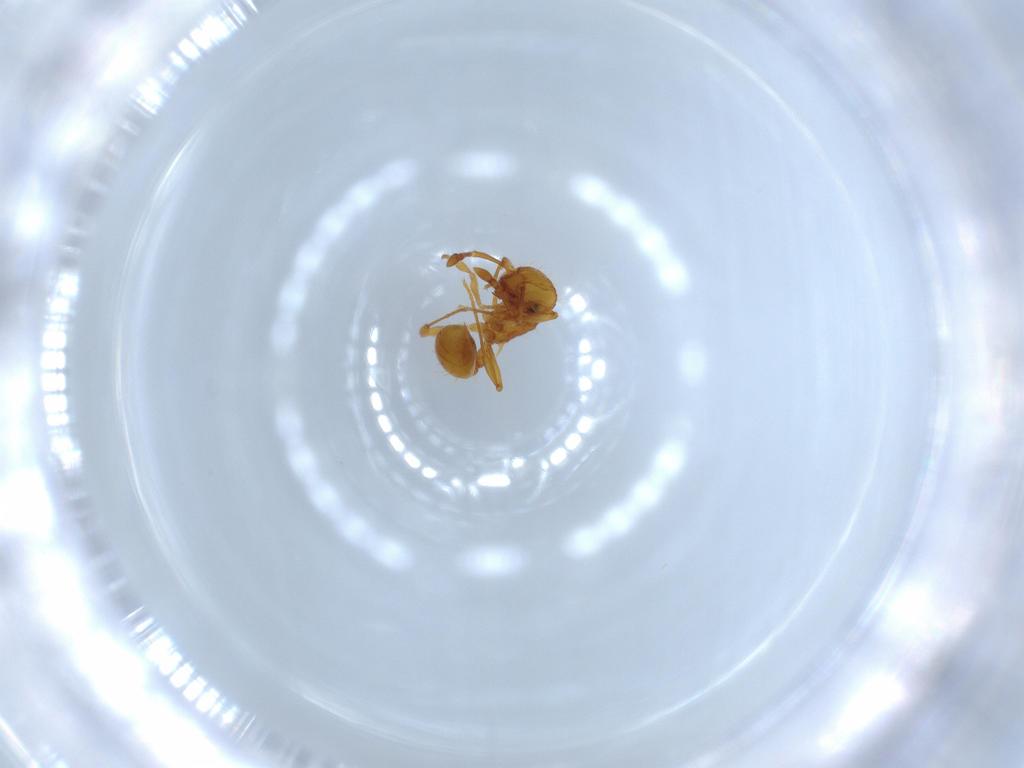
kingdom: Animalia
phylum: Arthropoda
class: Insecta
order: Hymenoptera
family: Formicidae
